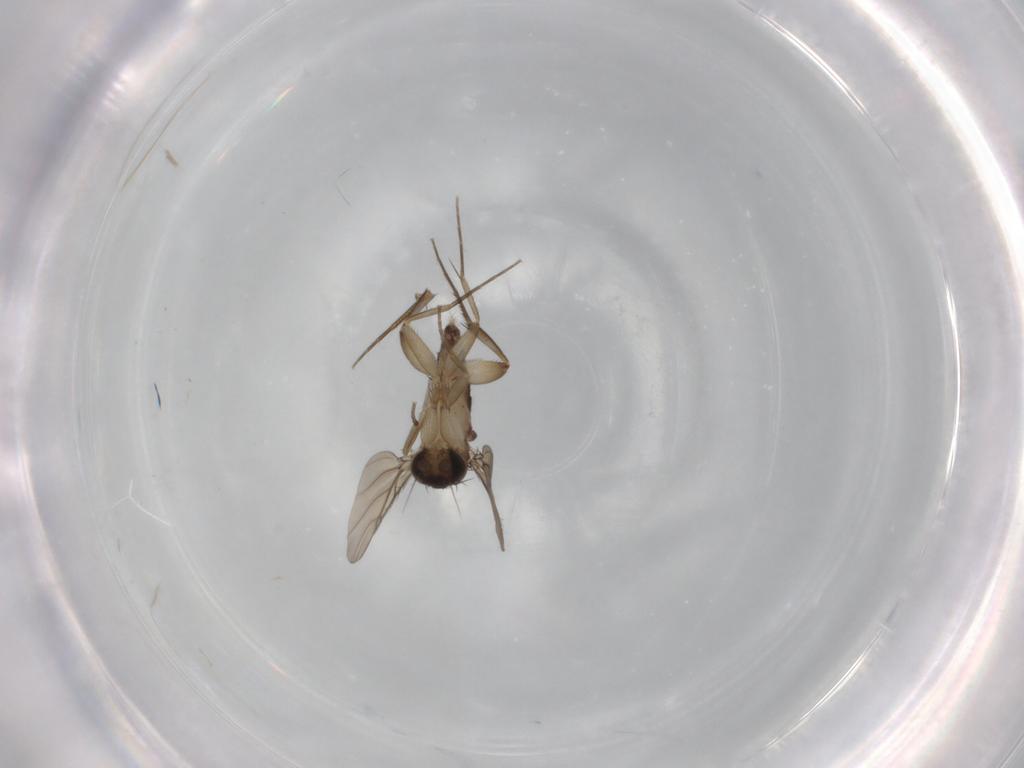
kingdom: Animalia
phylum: Arthropoda
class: Insecta
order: Diptera
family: Phoridae
